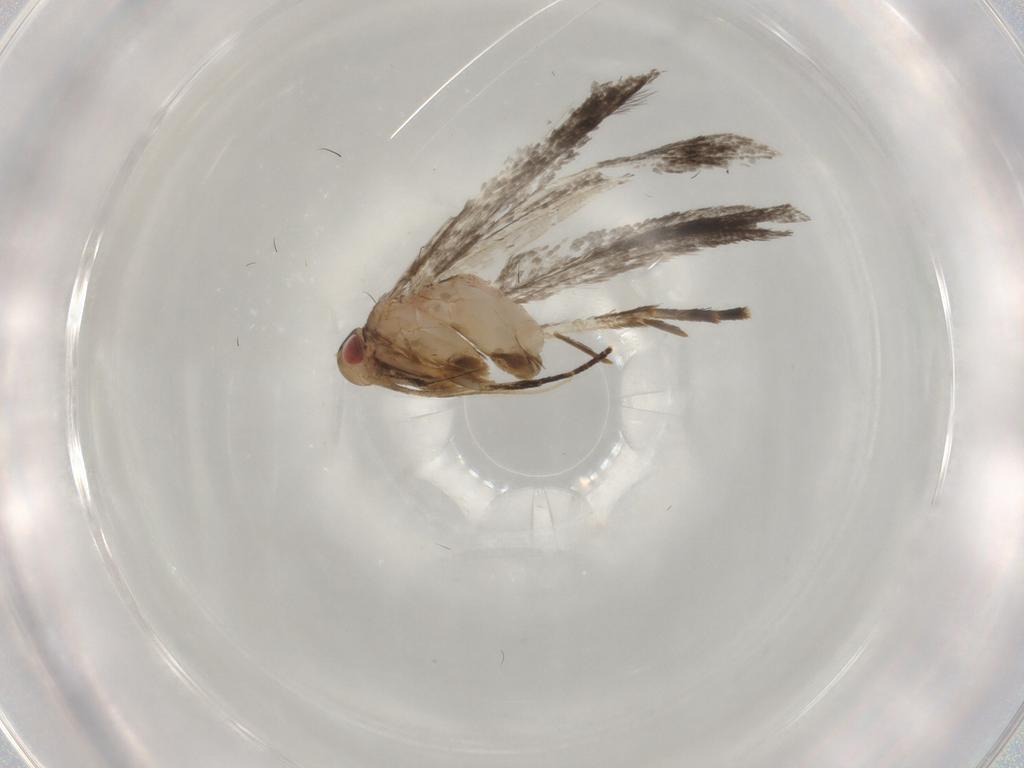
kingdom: Animalia
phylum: Arthropoda
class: Insecta
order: Lepidoptera
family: Gelechiidae
